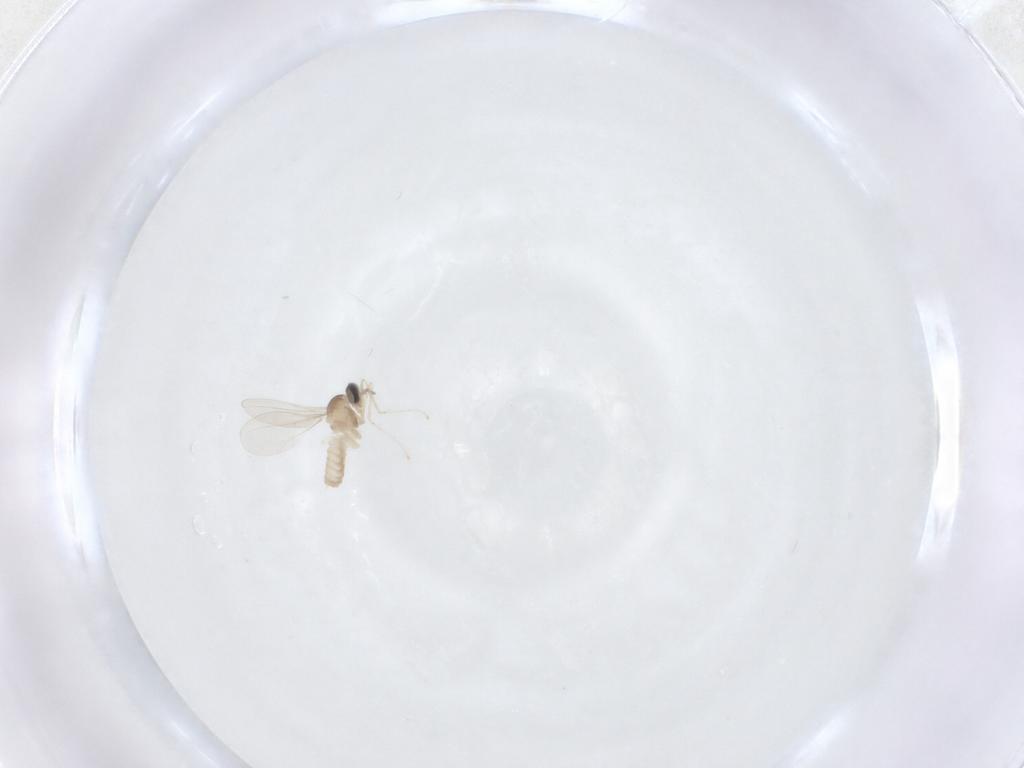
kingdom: Animalia
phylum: Arthropoda
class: Insecta
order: Diptera
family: Cecidomyiidae
